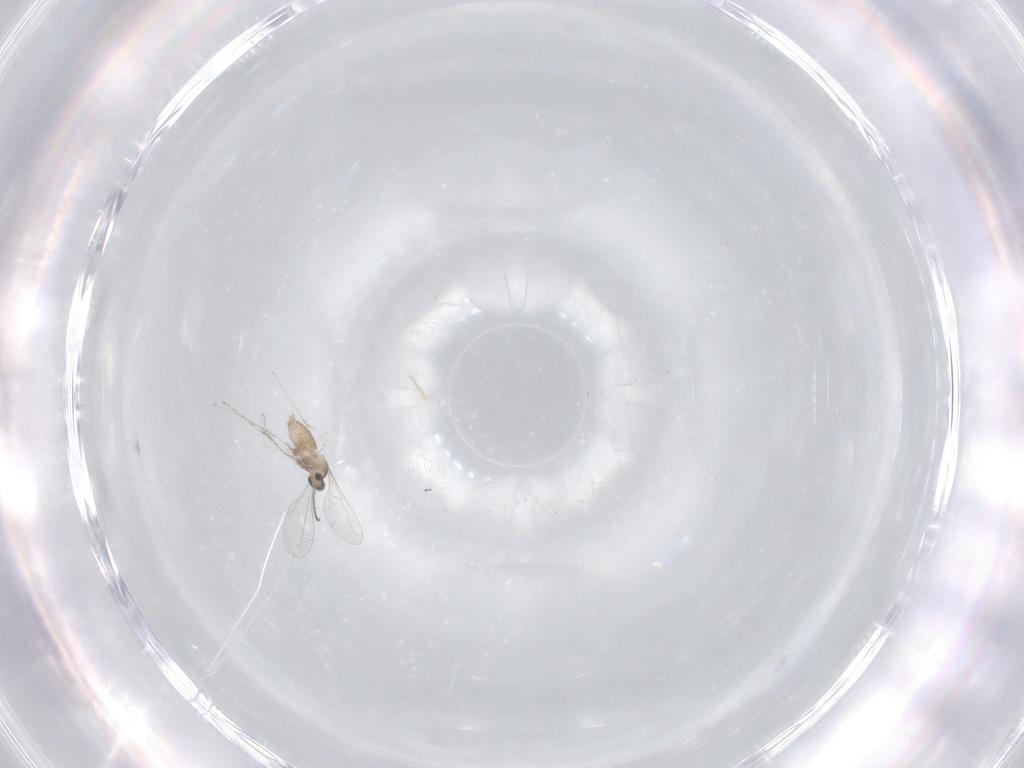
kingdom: Animalia
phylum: Arthropoda
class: Insecta
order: Diptera
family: Cecidomyiidae
